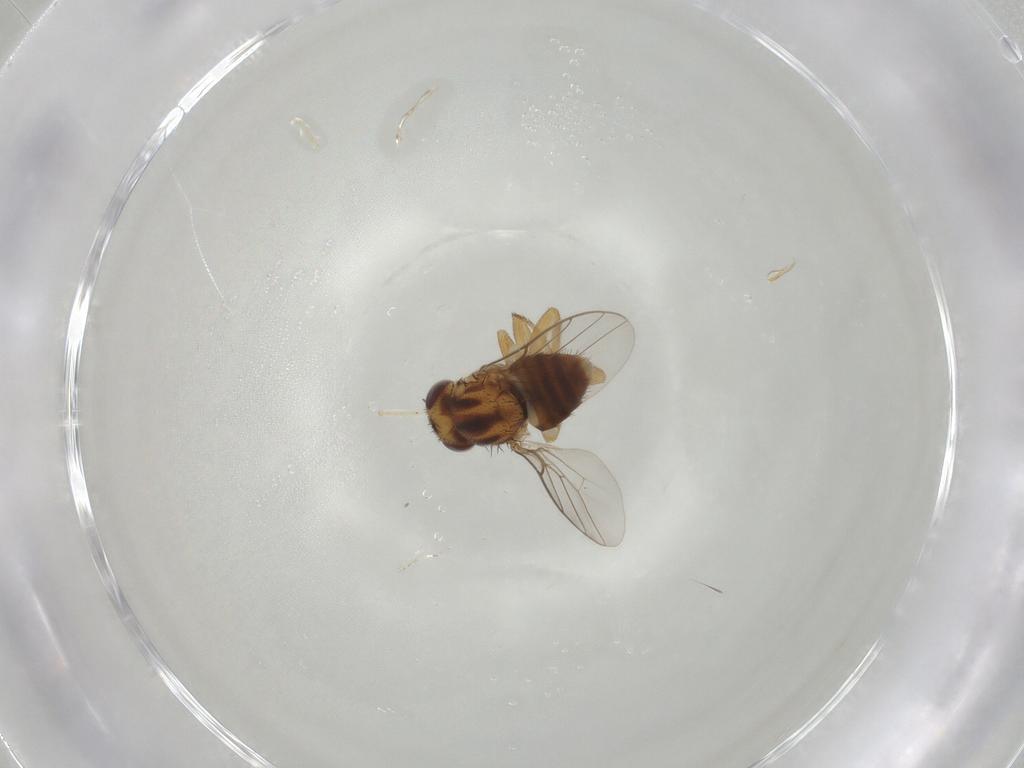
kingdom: Animalia
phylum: Arthropoda
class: Insecta
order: Diptera
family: Chloropidae
